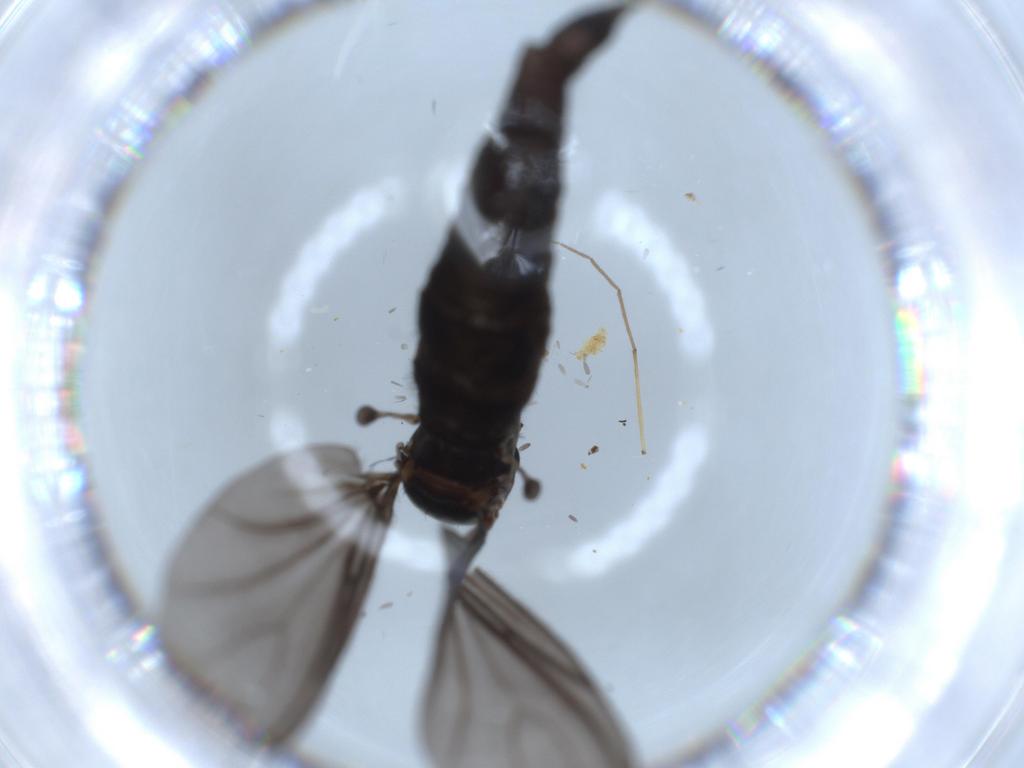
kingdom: Animalia
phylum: Arthropoda
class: Insecta
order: Diptera
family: Sciaridae
